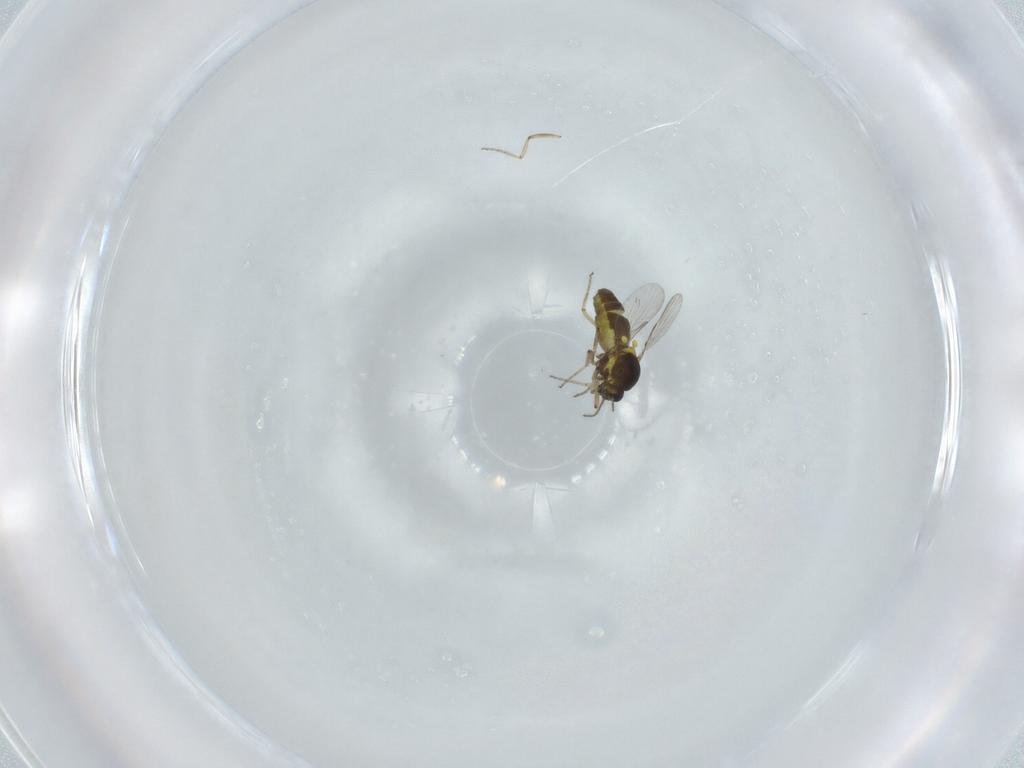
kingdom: Animalia
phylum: Arthropoda
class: Insecta
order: Diptera
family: Ceratopogonidae
